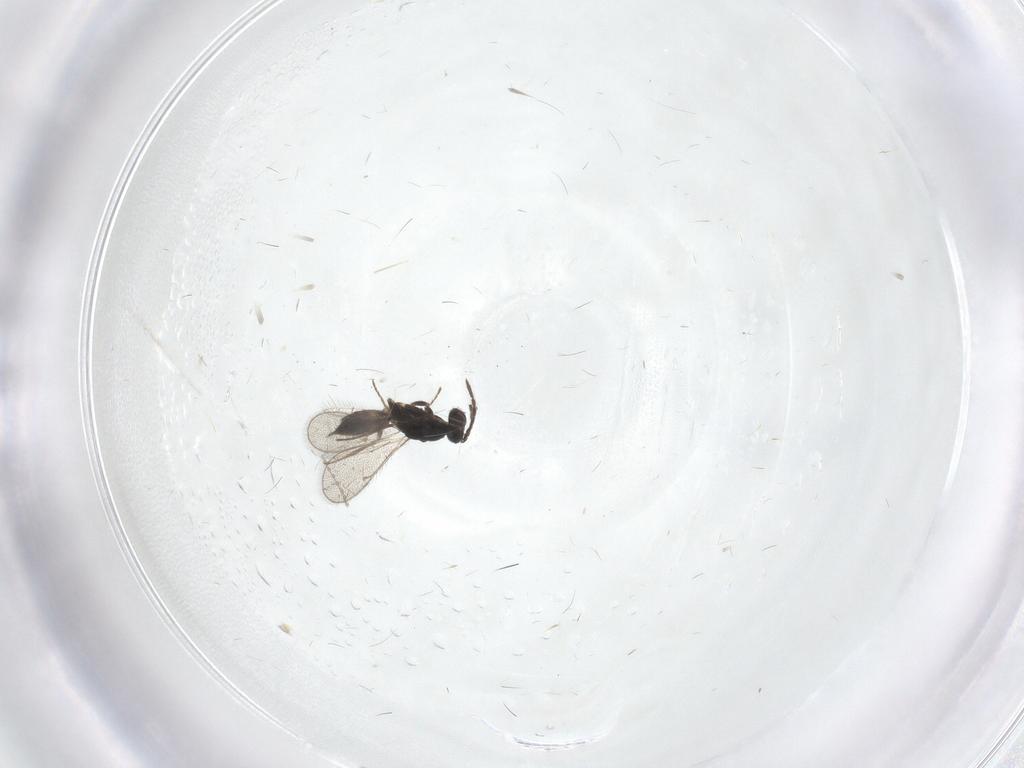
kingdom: Animalia
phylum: Arthropoda
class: Insecta
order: Hymenoptera
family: Eulophidae
